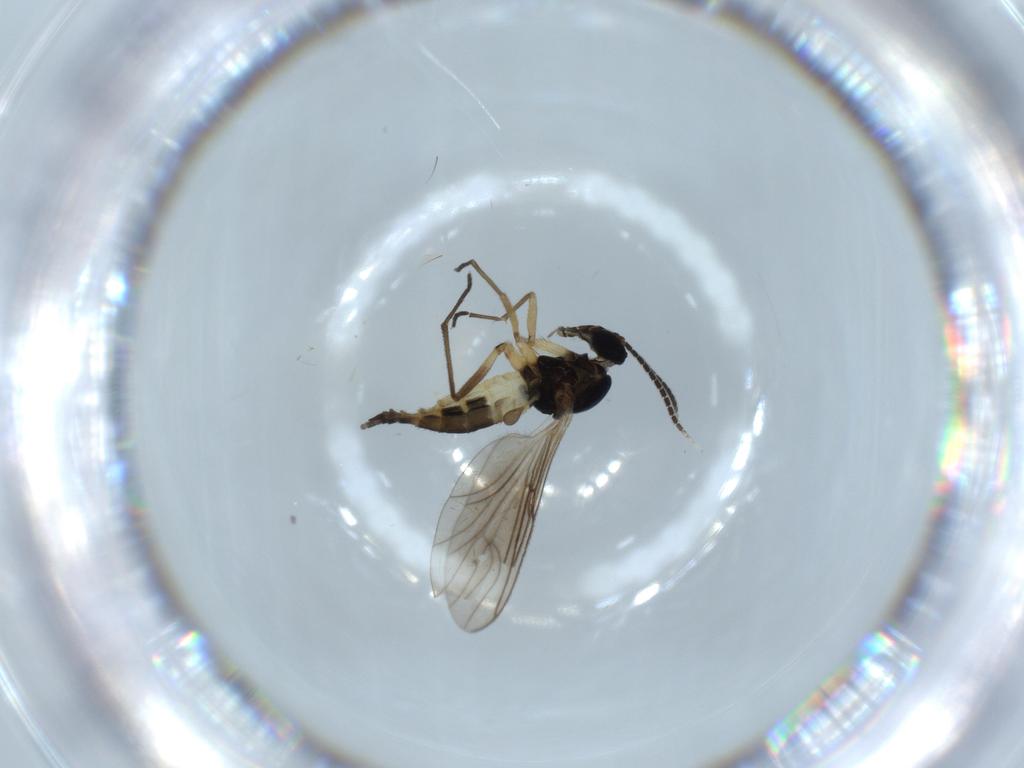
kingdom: Animalia
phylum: Arthropoda
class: Insecta
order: Diptera
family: Sciaridae
